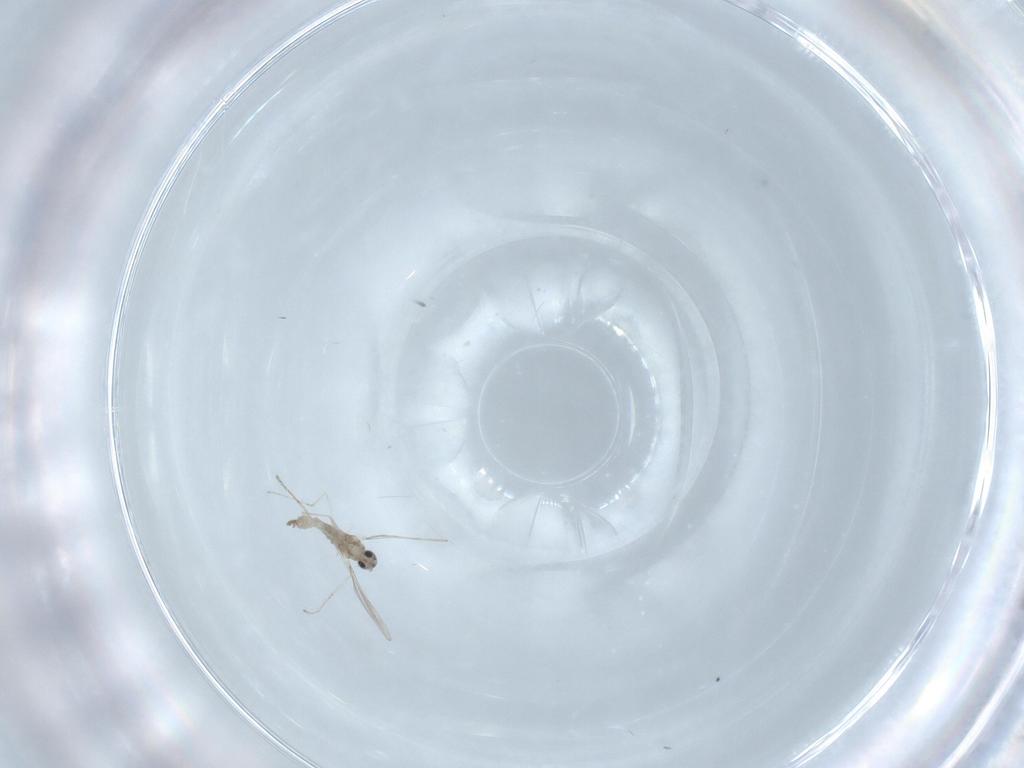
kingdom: Animalia
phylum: Arthropoda
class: Insecta
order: Diptera
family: Cecidomyiidae
